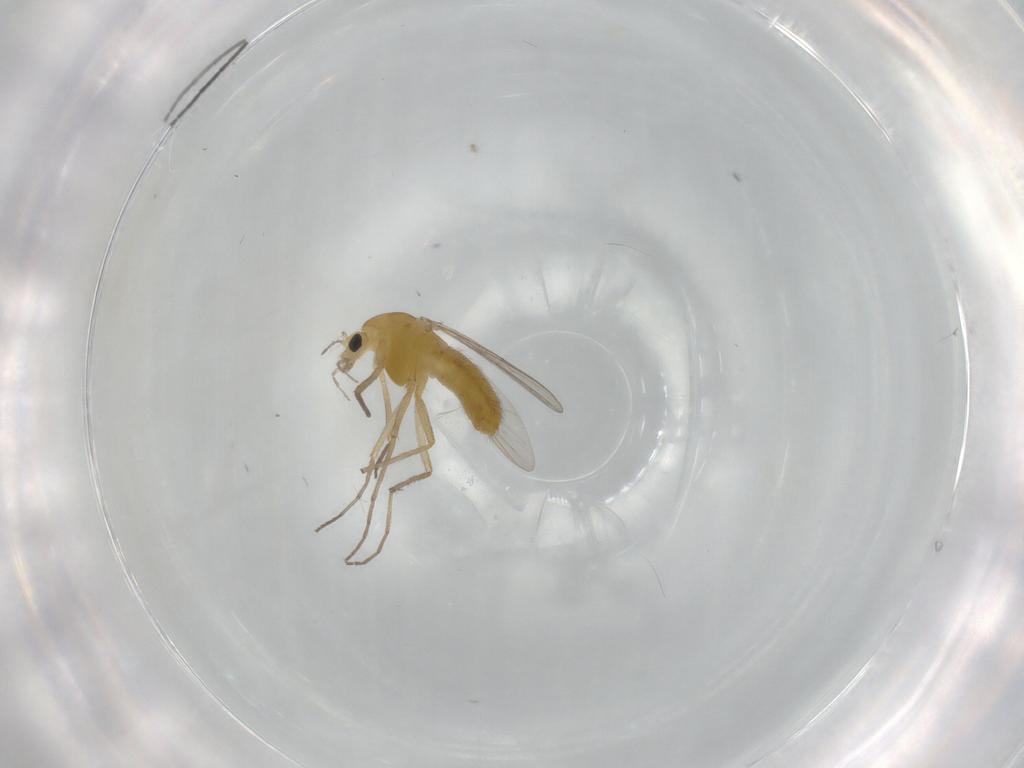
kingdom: Animalia
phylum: Arthropoda
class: Insecta
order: Diptera
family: Chironomidae
